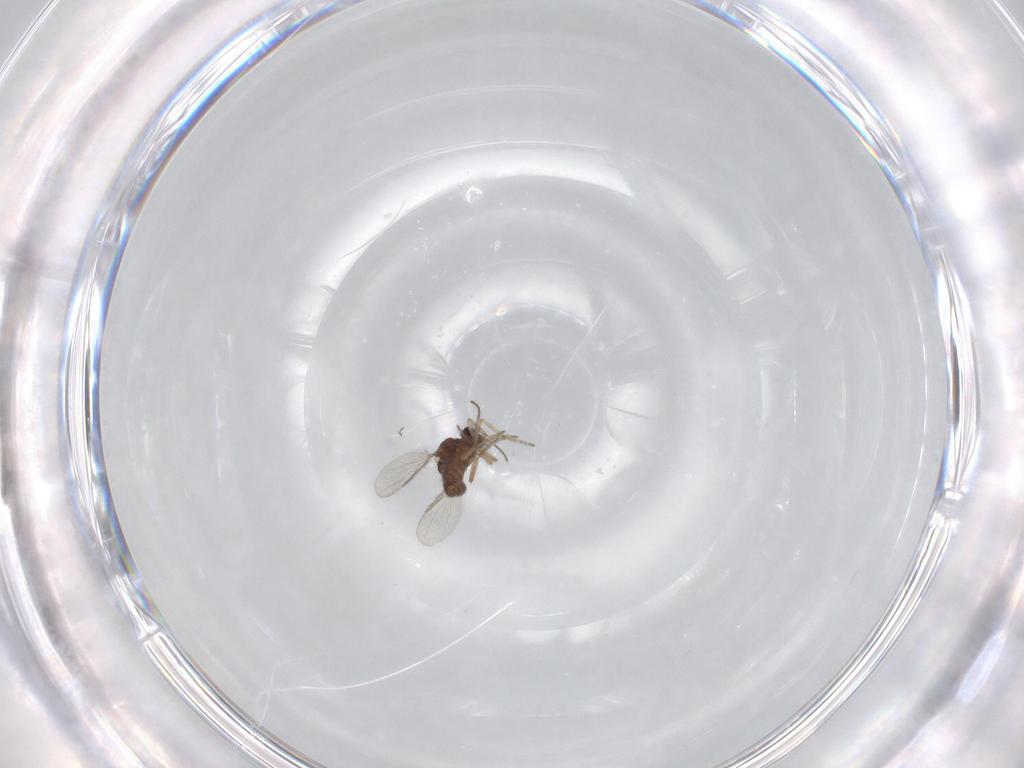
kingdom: Animalia
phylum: Arthropoda
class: Insecta
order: Diptera
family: Ceratopogonidae
